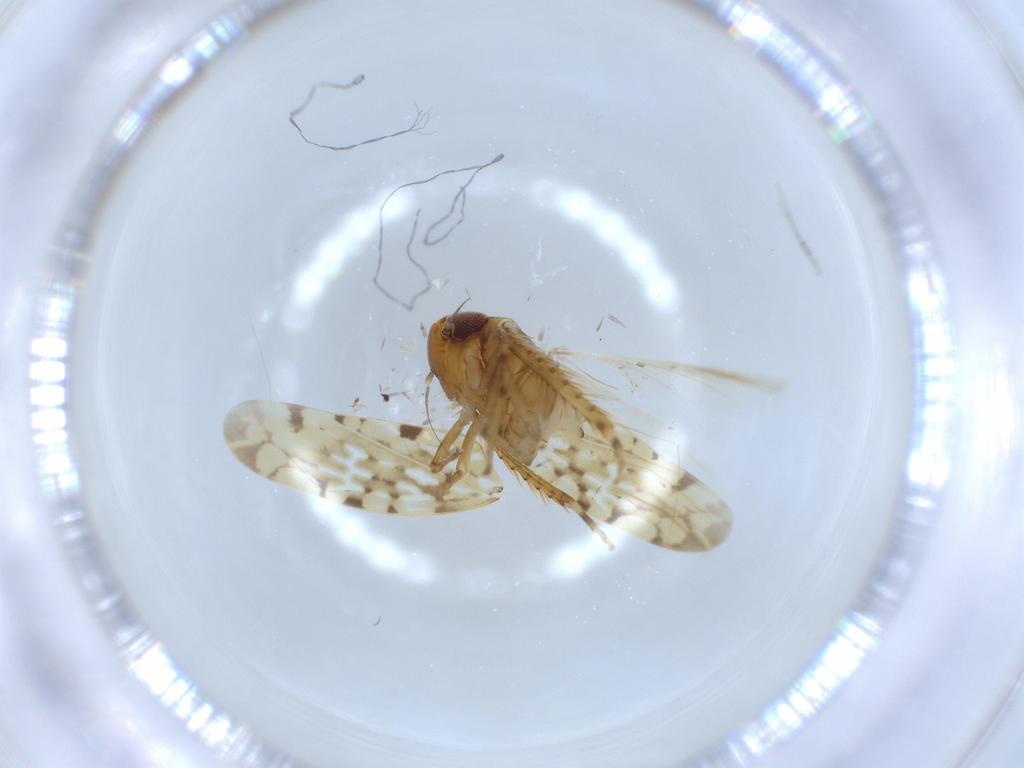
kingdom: Animalia
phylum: Arthropoda
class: Insecta
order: Hemiptera
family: Cicadellidae
